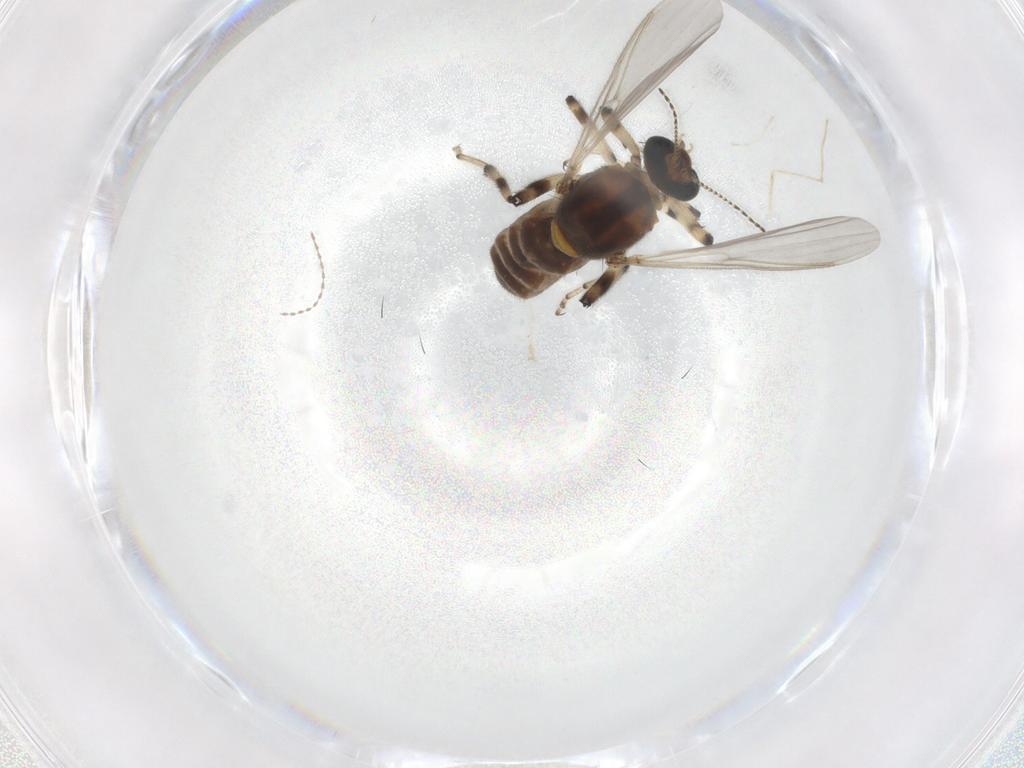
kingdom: Animalia
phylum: Arthropoda
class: Insecta
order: Diptera
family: Ceratopogonidae
